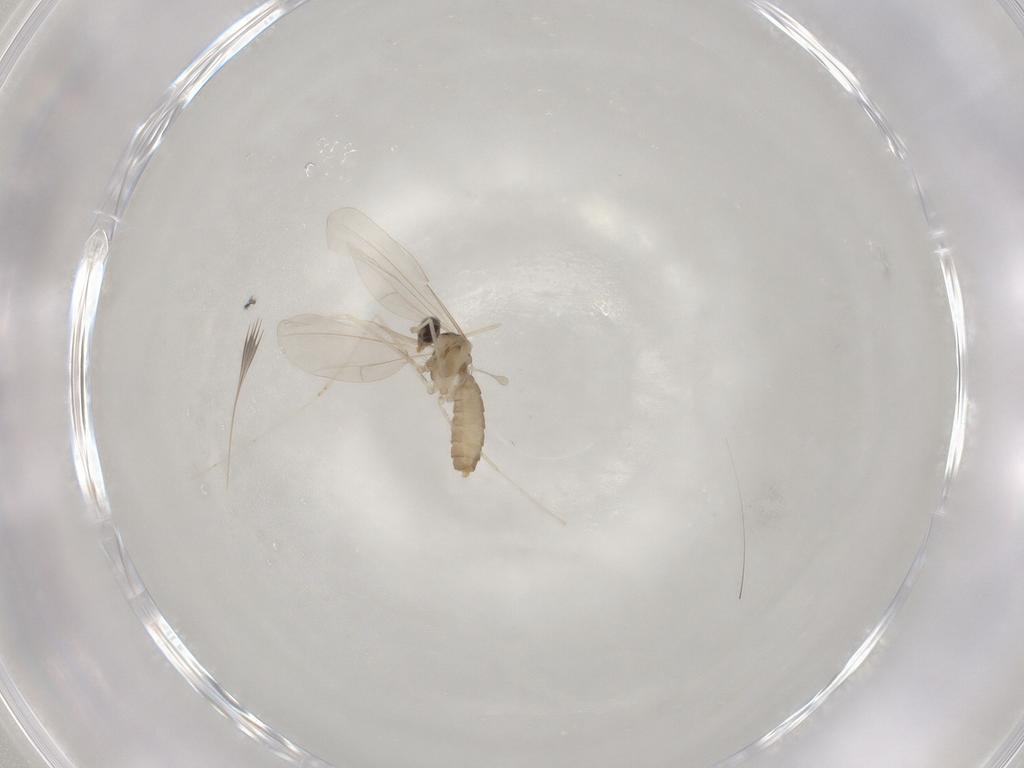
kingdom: Animalia
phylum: Arthropoda
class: Insecta
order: Diptera
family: Cecidomyiidae
